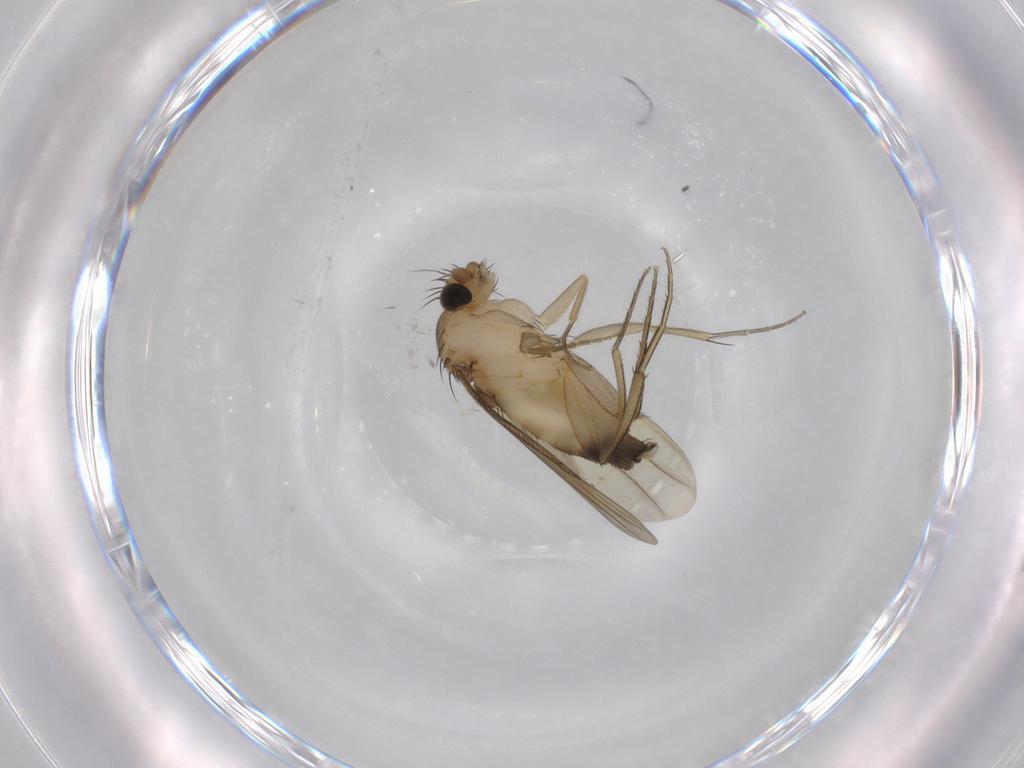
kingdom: Animalia
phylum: Arthropoda
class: Insecta
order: Diptera
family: Phoridae
